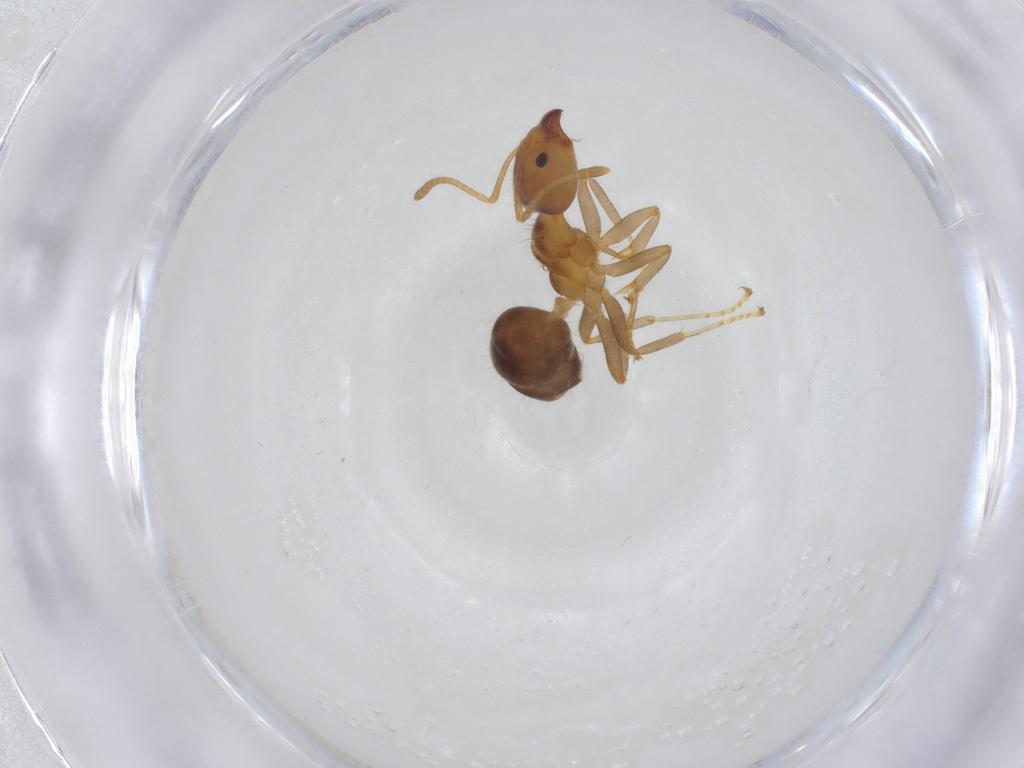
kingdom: Animalia
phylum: Arthropoda
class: Insecta
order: Hymenoptera
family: Formicidae
